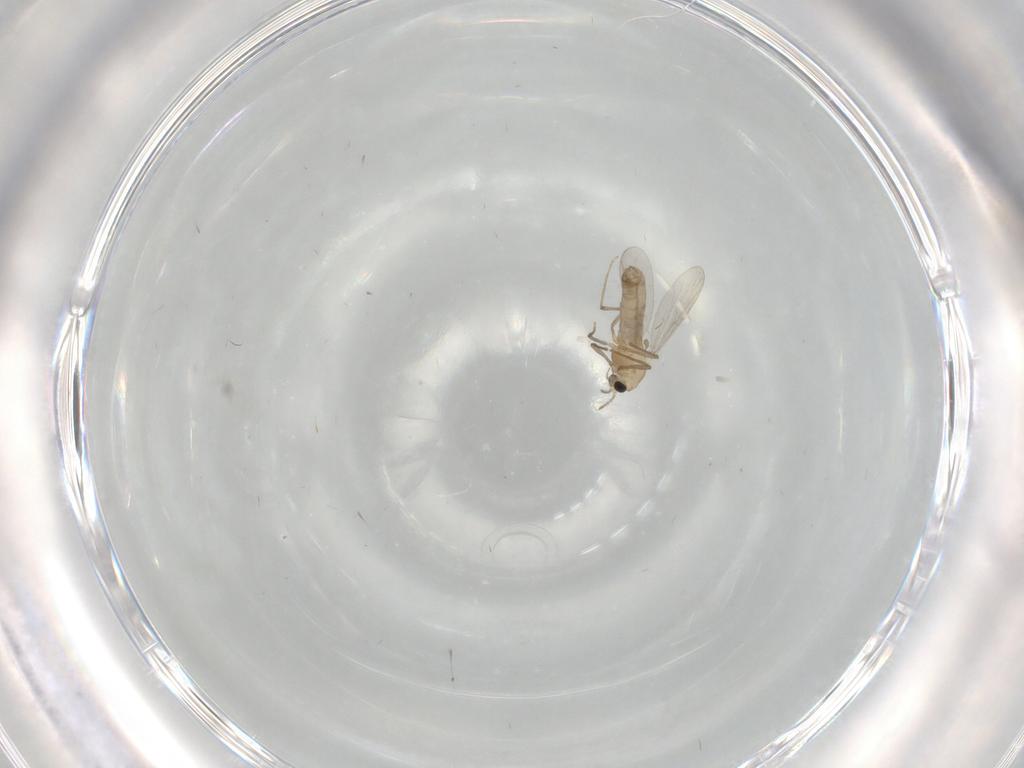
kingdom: Animalia
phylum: Arthropoda
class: Insecta
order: Diptera
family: Chironomidae
